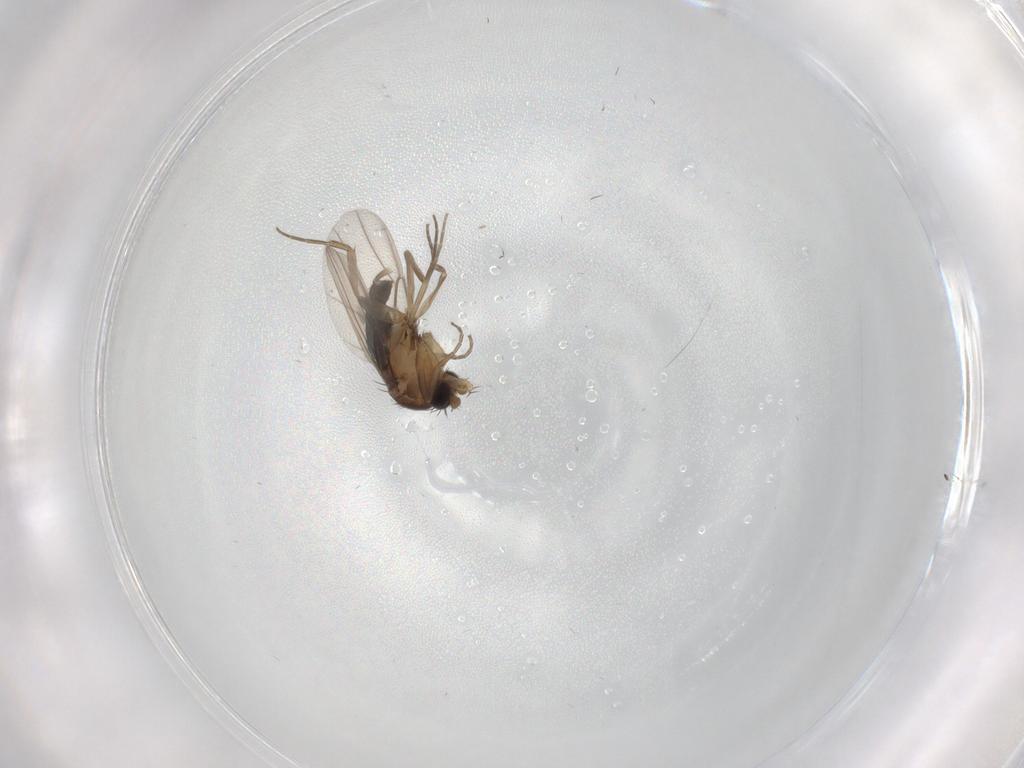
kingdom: Animalia
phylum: Arthropoda
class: Insecta
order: Diptera
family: Phoridae
